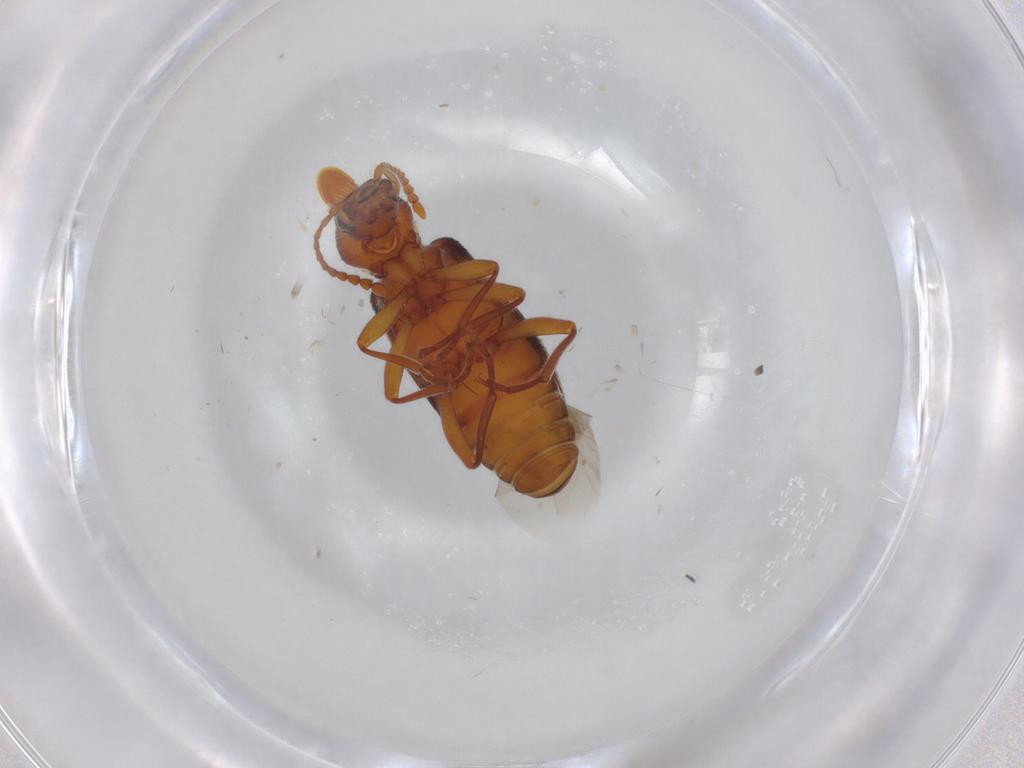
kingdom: Animalia
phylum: Arthropoda
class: Insecta
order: Coleoptera
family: Anthicidae
